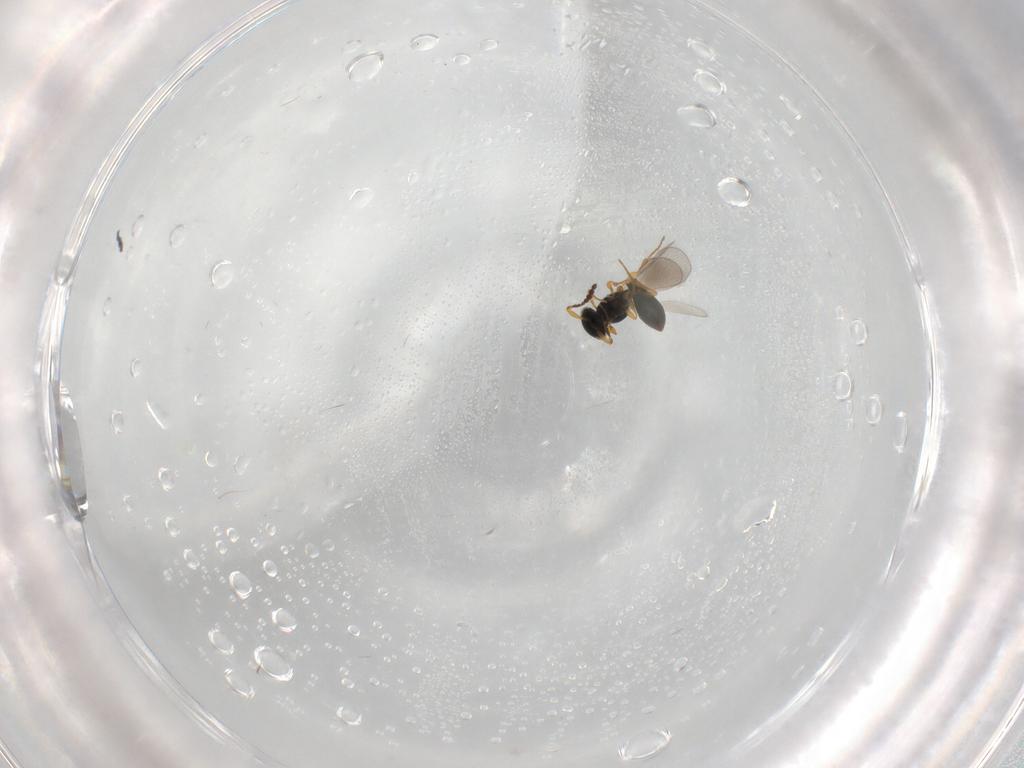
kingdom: Animalia
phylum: Arthropoda
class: Insecta
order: Hymenoptera
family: Platygastridae
